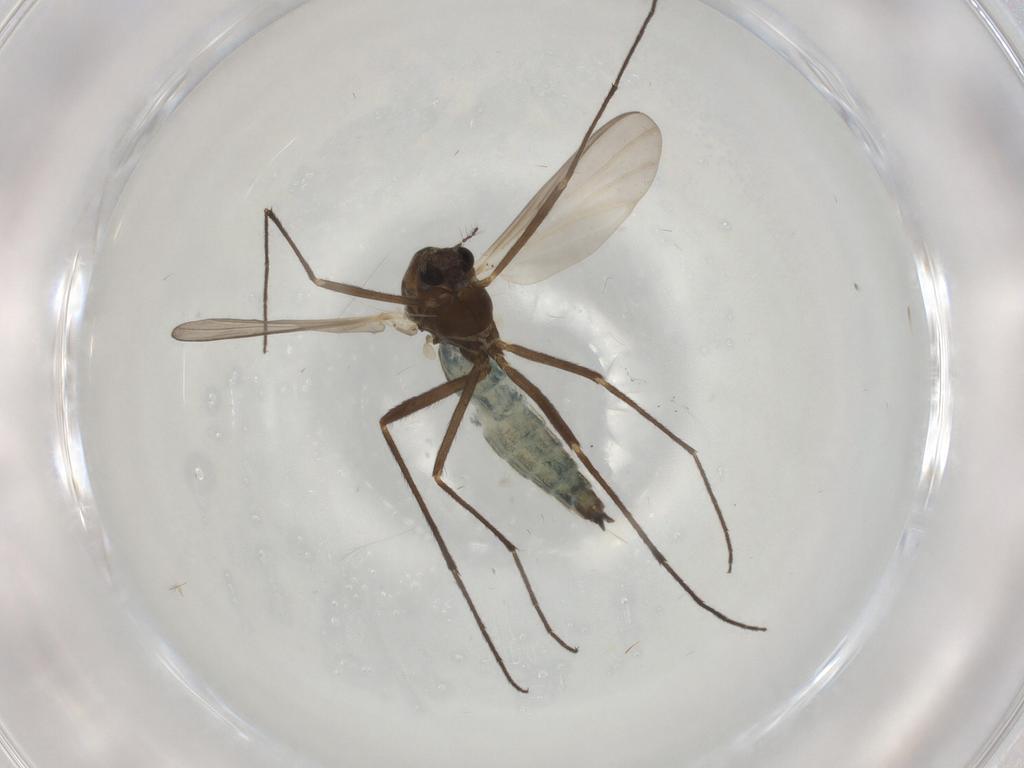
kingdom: Animalia
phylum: Arthropoda
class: Insecta
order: Diptera
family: Chironomidae
